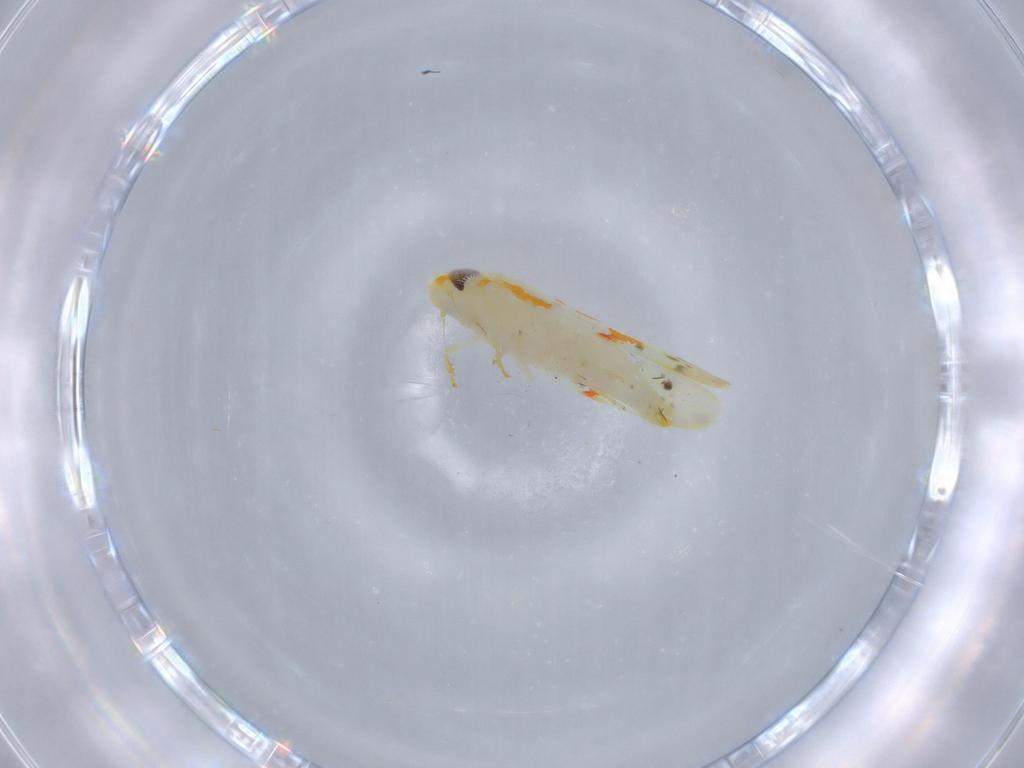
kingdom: Animalia
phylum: Arthropoda
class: Insecta
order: Hemiptera
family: Cicadellidae
